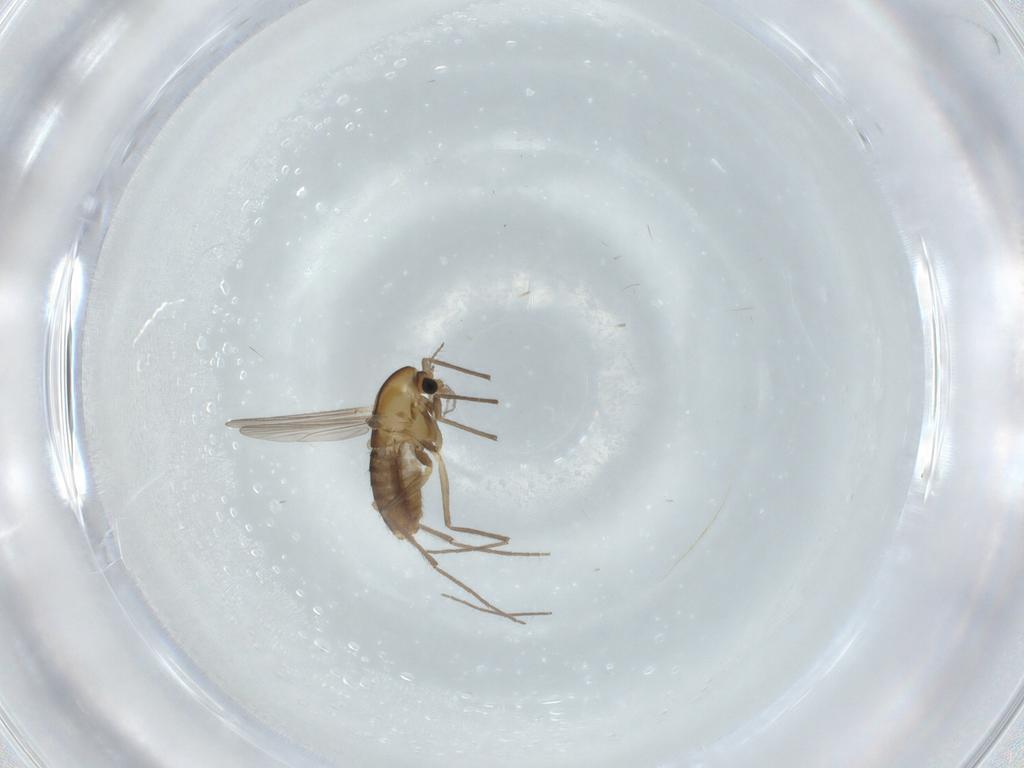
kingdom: Animalia
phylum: Arthropoda
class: Insecta
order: Diptera
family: Chironomidae
